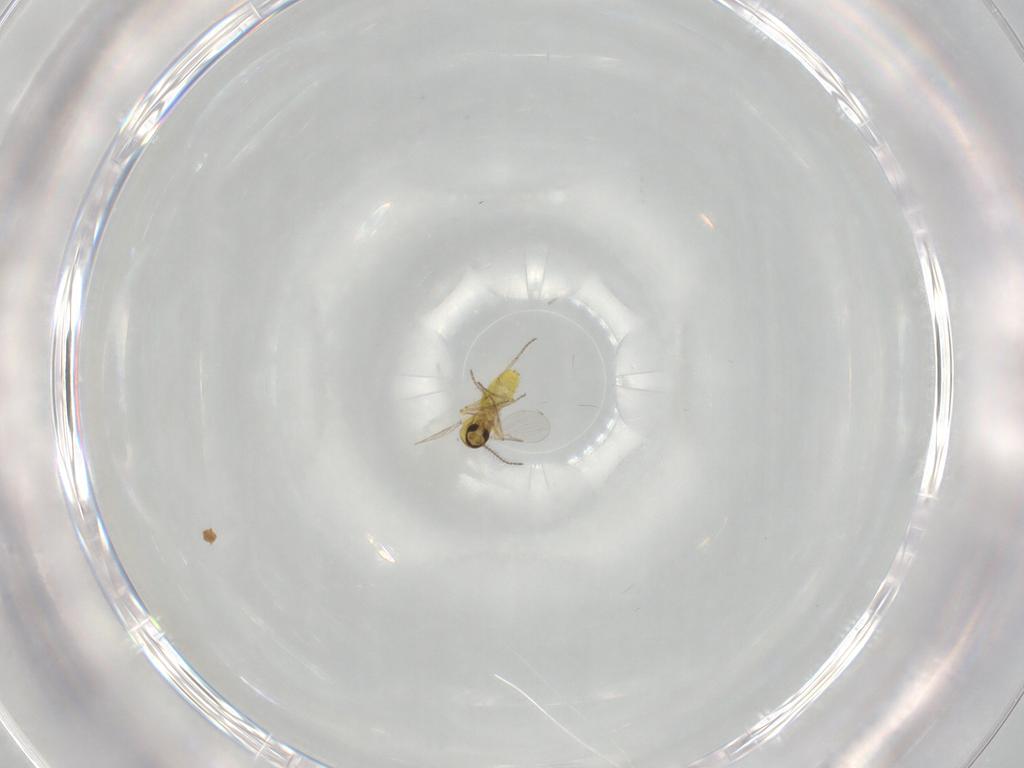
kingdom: Animalia
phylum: Arthropoda
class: Insecta
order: Diptera
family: Ceratopogonidae
